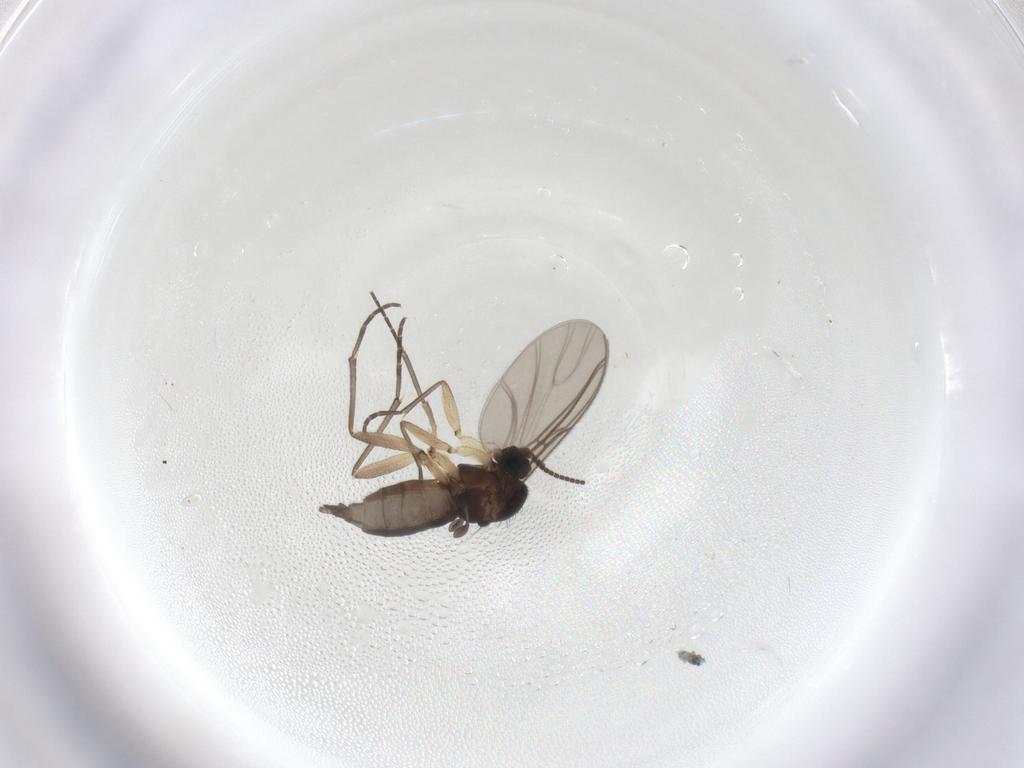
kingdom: Animalia
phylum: Arthropoda
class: Insecta
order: Diptera
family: Sciaridae
